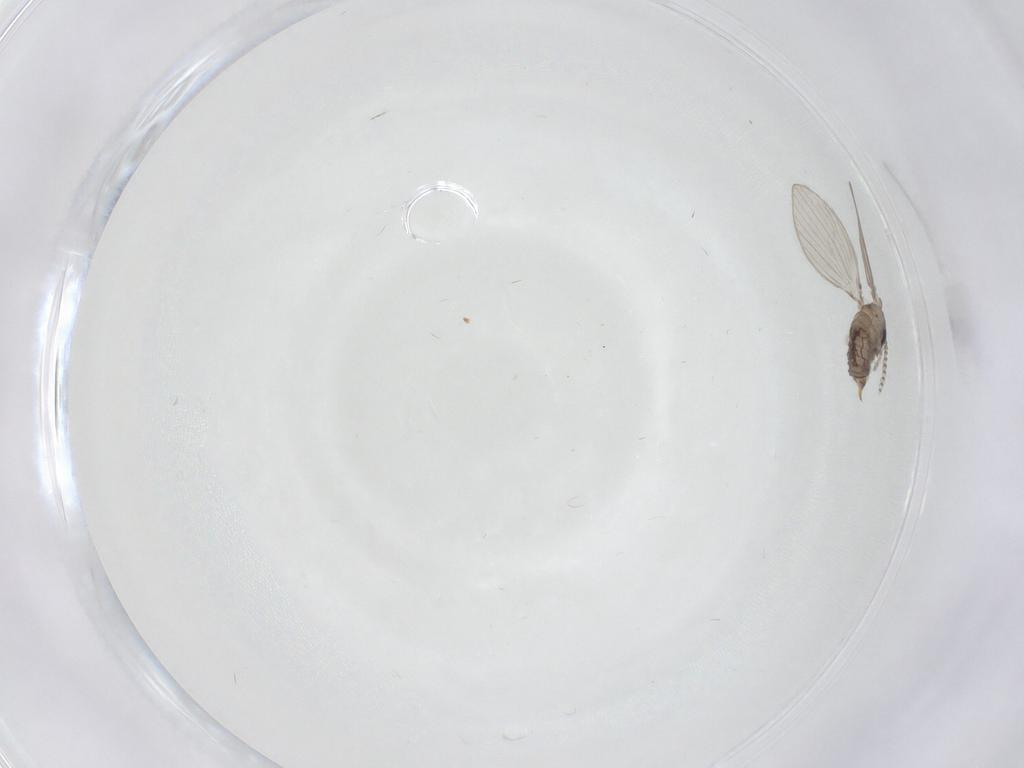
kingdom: Animalia
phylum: Arthropoda
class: Insecta
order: Diptera
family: Psychodidae
